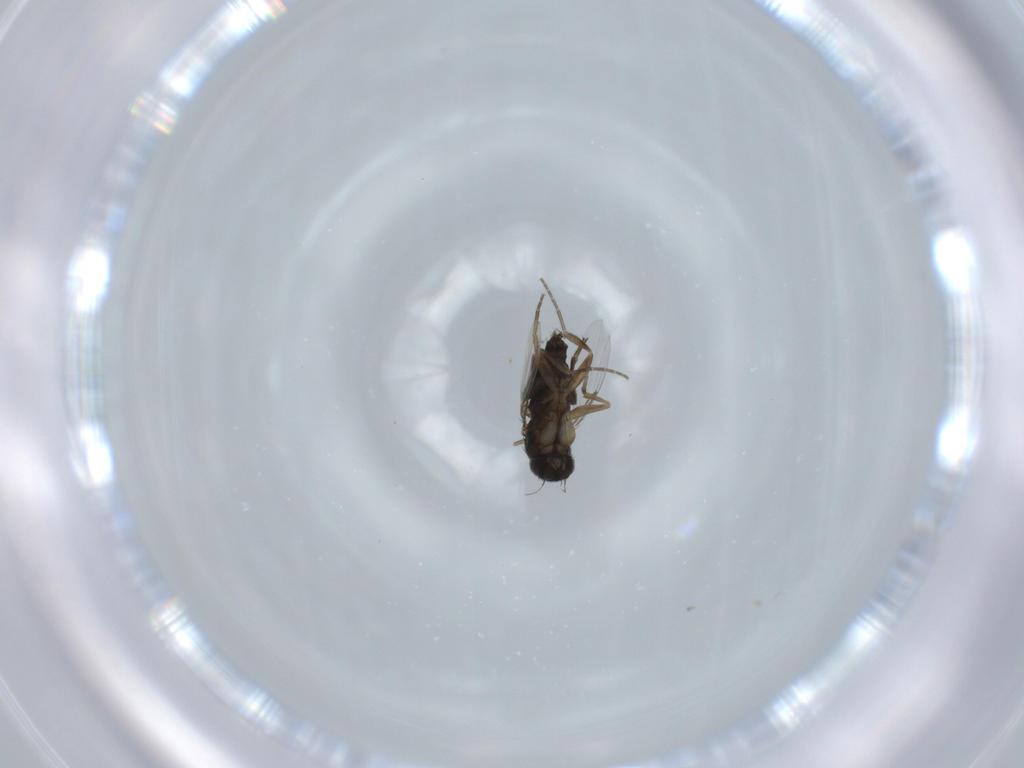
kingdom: Animalia
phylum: Arthropoda
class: Insecta
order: Diptera
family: Phoridae
